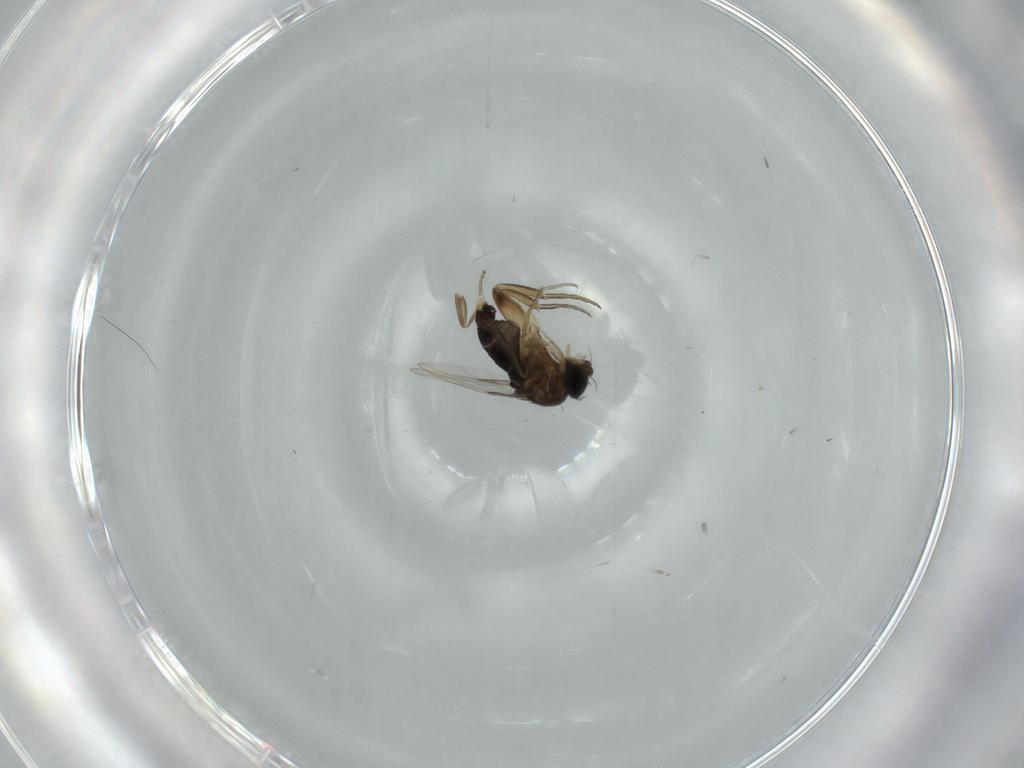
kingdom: Animalia
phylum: Arthropoda
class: Insecta
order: Diptera
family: Phoridae
